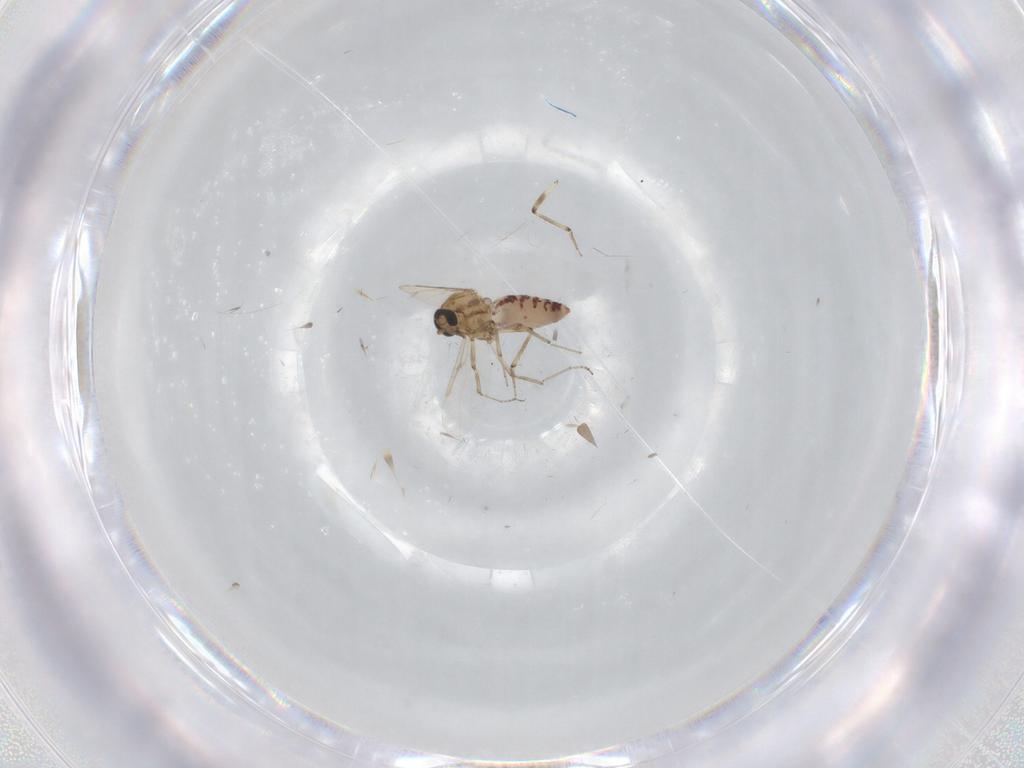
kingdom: Animalia
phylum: Arthropoda
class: Insecta
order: Diptera
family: Ceratopogonidae
